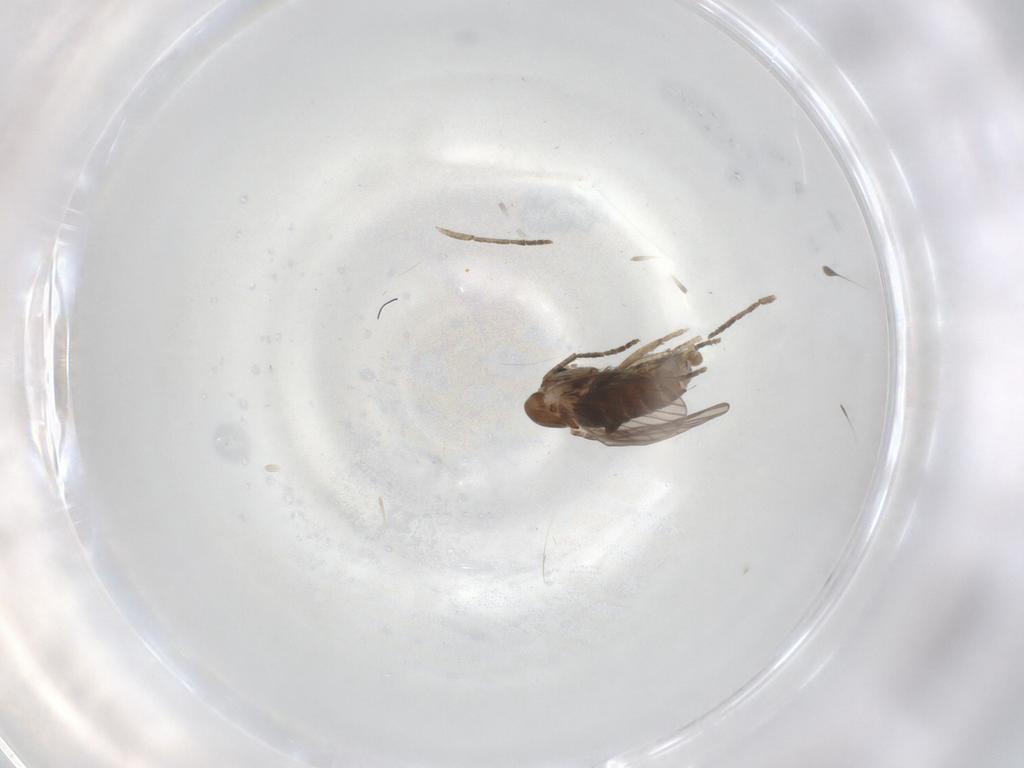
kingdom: Animalia
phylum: Arthropoda
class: Insecta
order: Diptera
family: Psychodidae
